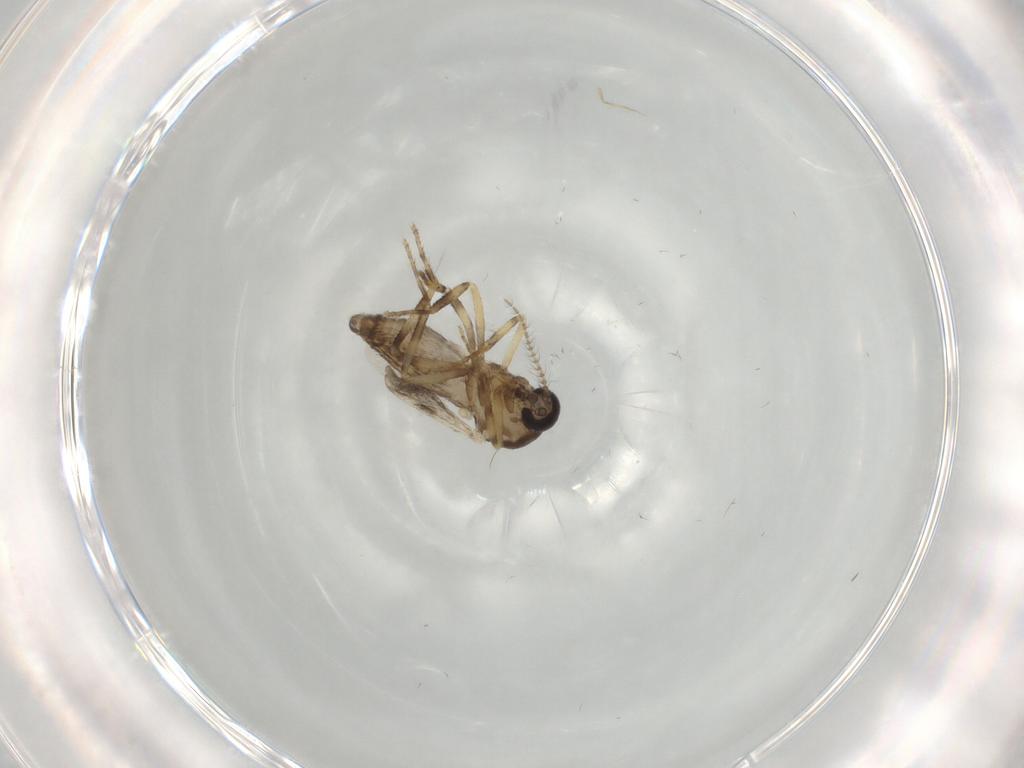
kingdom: Animalia
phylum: Arthropoda
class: Insecta
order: Diptera
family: Ceratopogonidae
